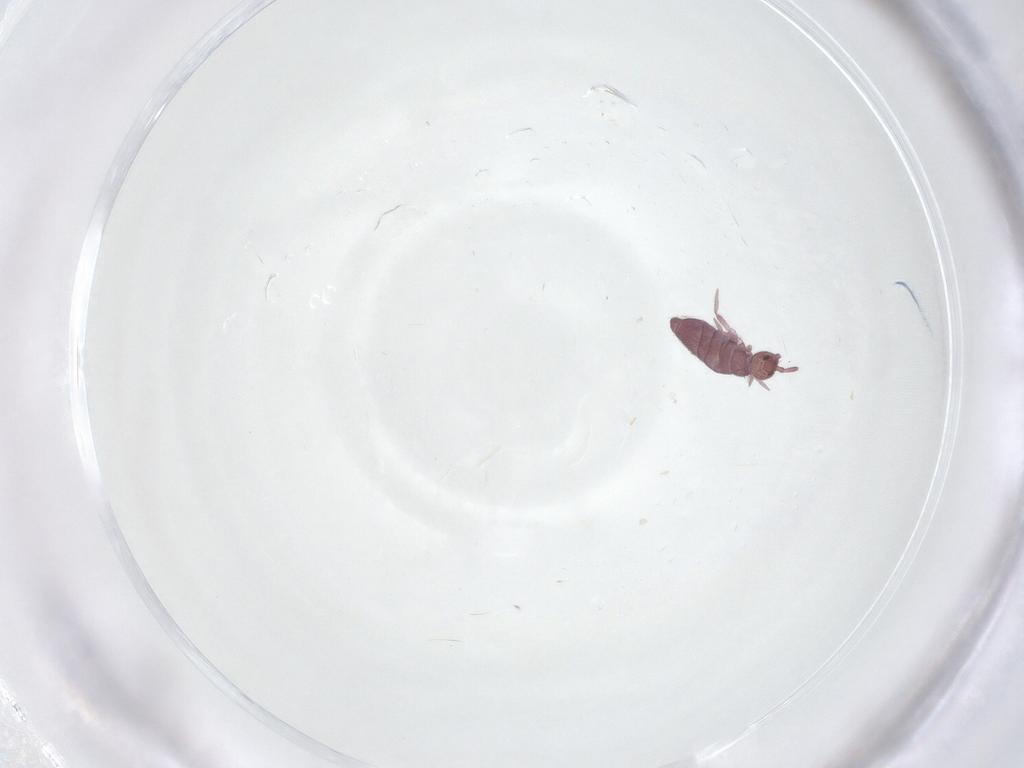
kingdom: Animalia
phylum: Arthropoda
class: Collembola
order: Entomobryomorpha
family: Entomobryidae
